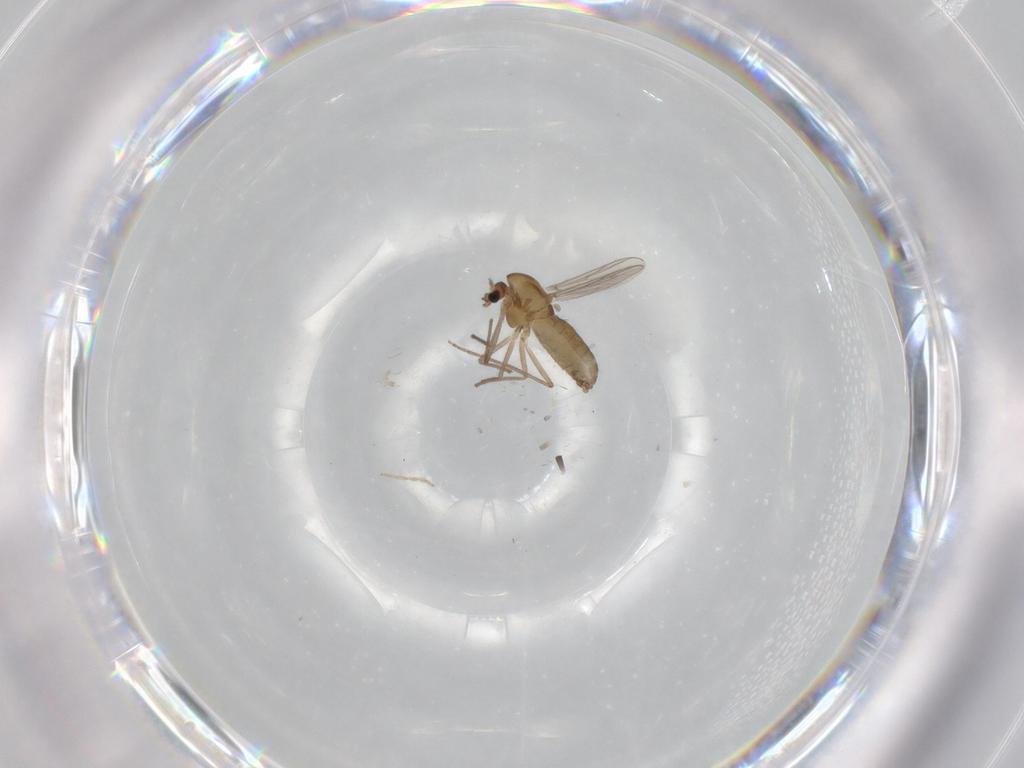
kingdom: Animalia
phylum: Arthropoda
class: Insecta
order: Diptera
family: Chironomidae
